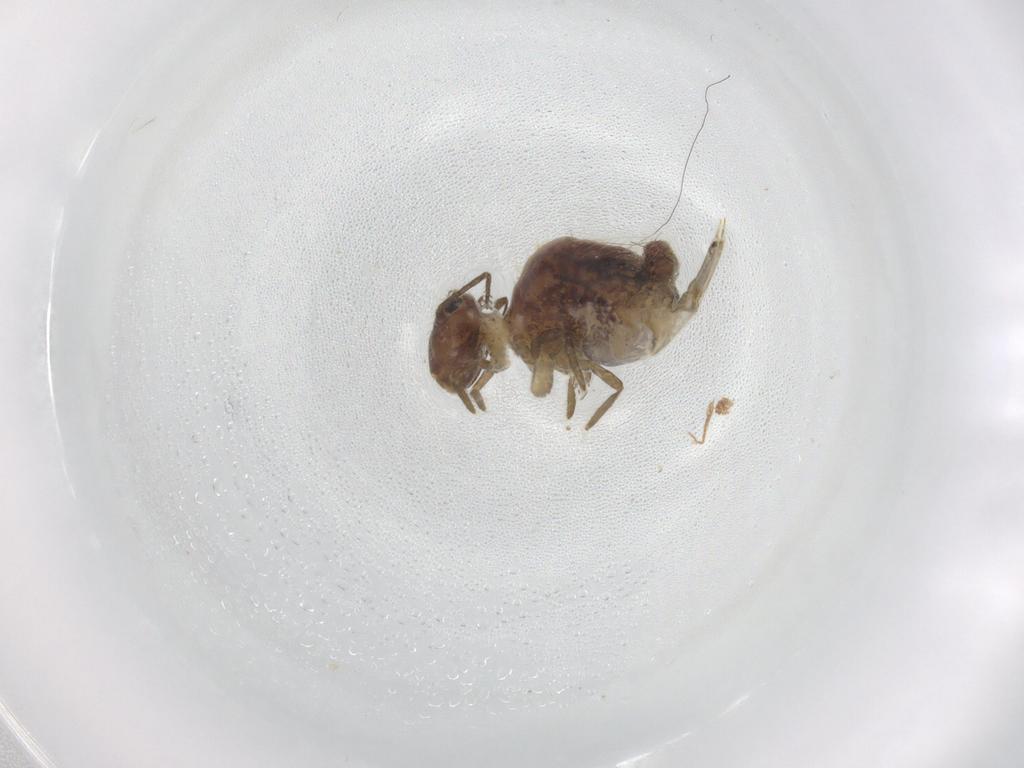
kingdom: Animalia
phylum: Arthropoda
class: Collembola
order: Symphypleona
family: Sminthuridae
